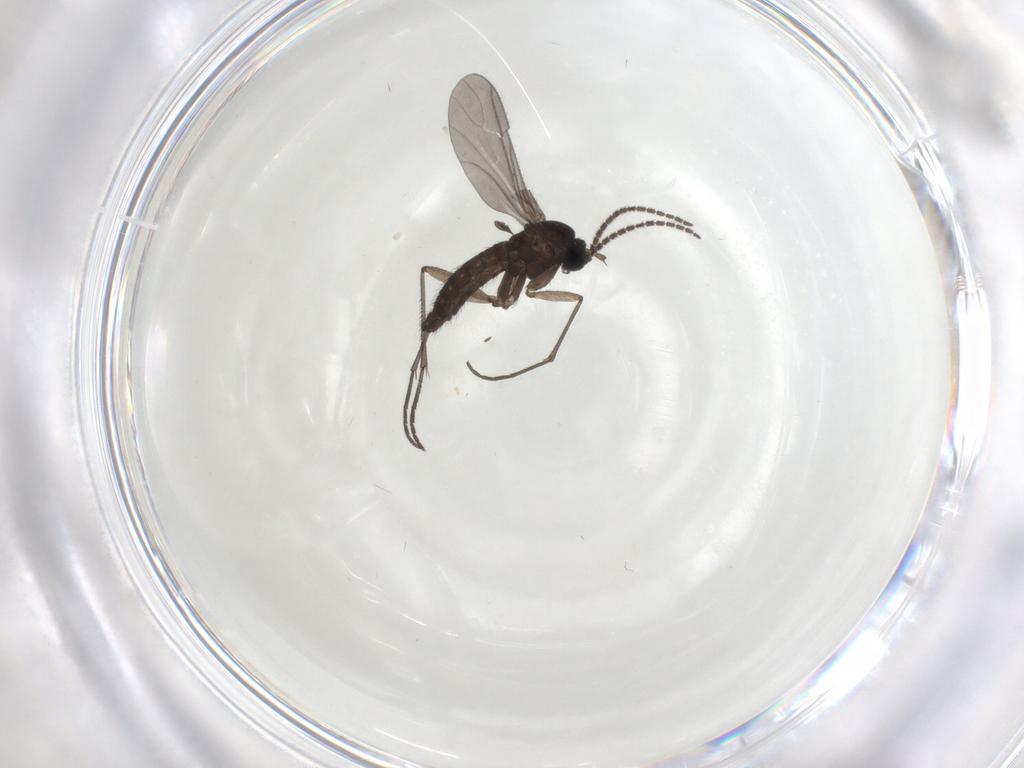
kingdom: Animalia
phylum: Arthropoda
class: Insecta
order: Diptera
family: Sciaridae
